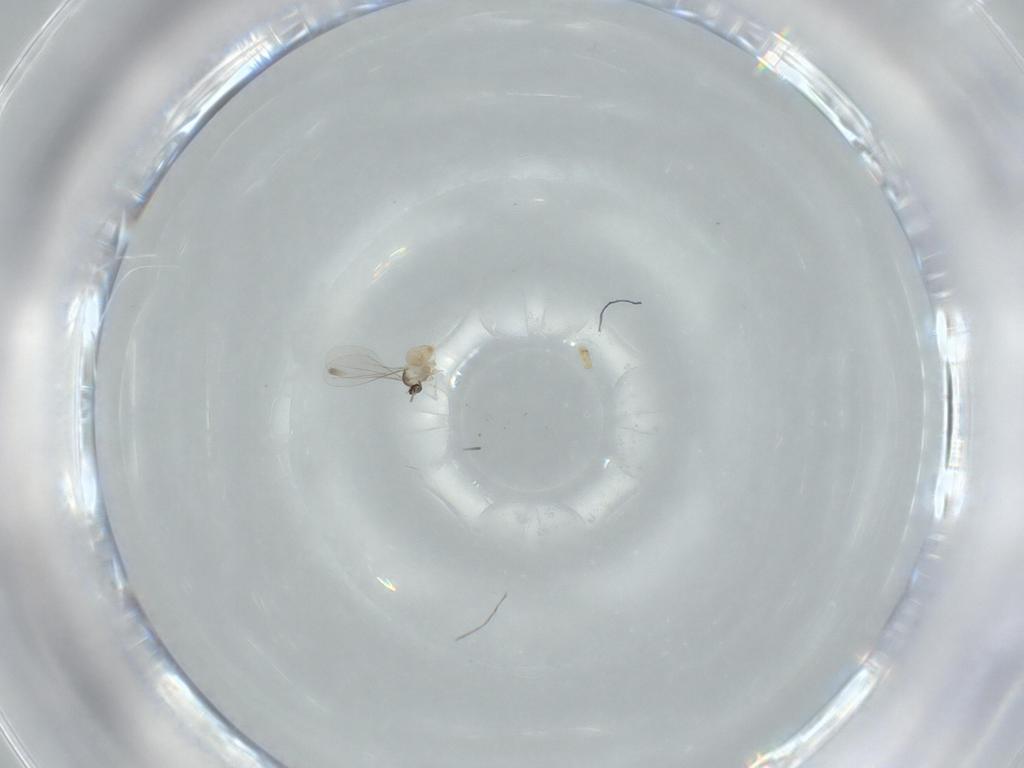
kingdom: Animalia
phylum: Arthropoda
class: Insecta
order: Diptera
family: Cecidomyiidae
